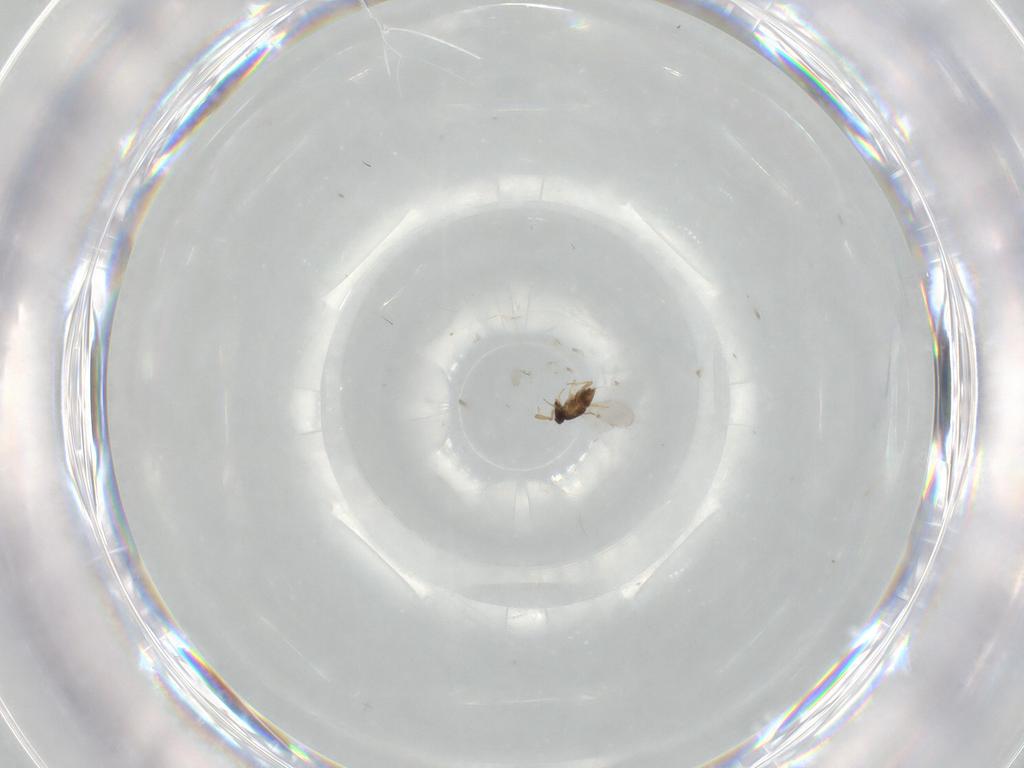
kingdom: Animalia
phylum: Arthropoda
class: Insecta
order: Hymenoptera
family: Encyrtidae
